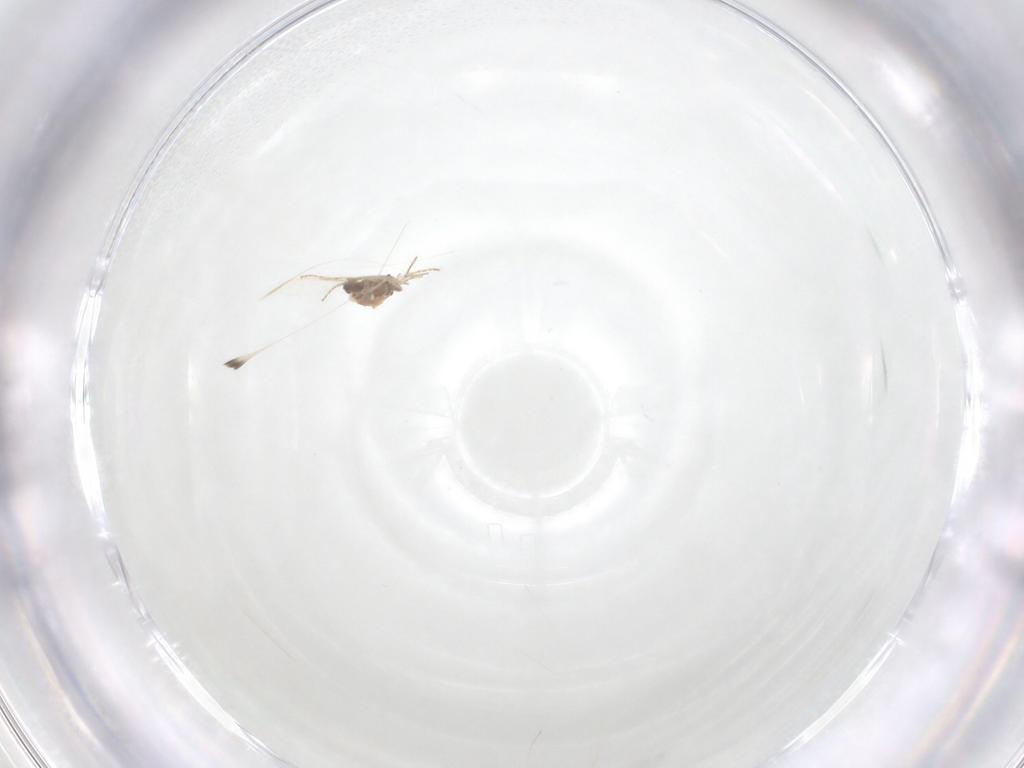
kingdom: Animalia
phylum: Arthropoda
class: Insecta
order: Diptera
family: Ceratopogonidae
